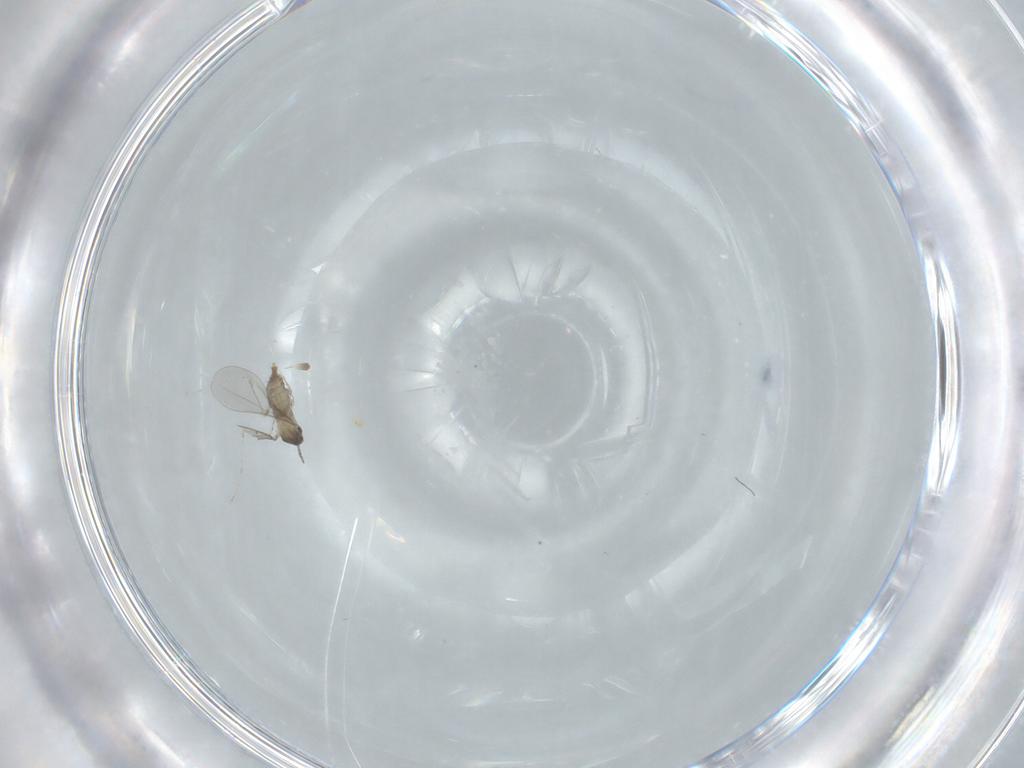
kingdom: Animalia
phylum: Arthropoda
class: Insecta
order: Diptera
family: Cecidomyiidae
